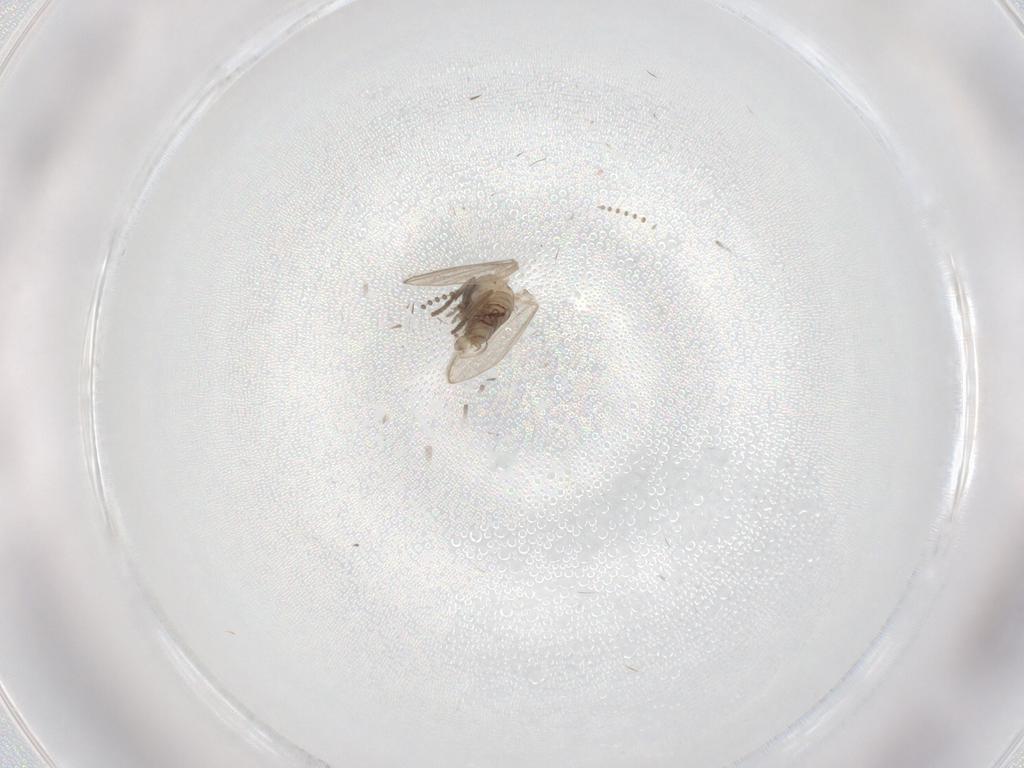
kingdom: Animalia
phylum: Arthropoda
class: Insecta
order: Diptera
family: Psychodidae
